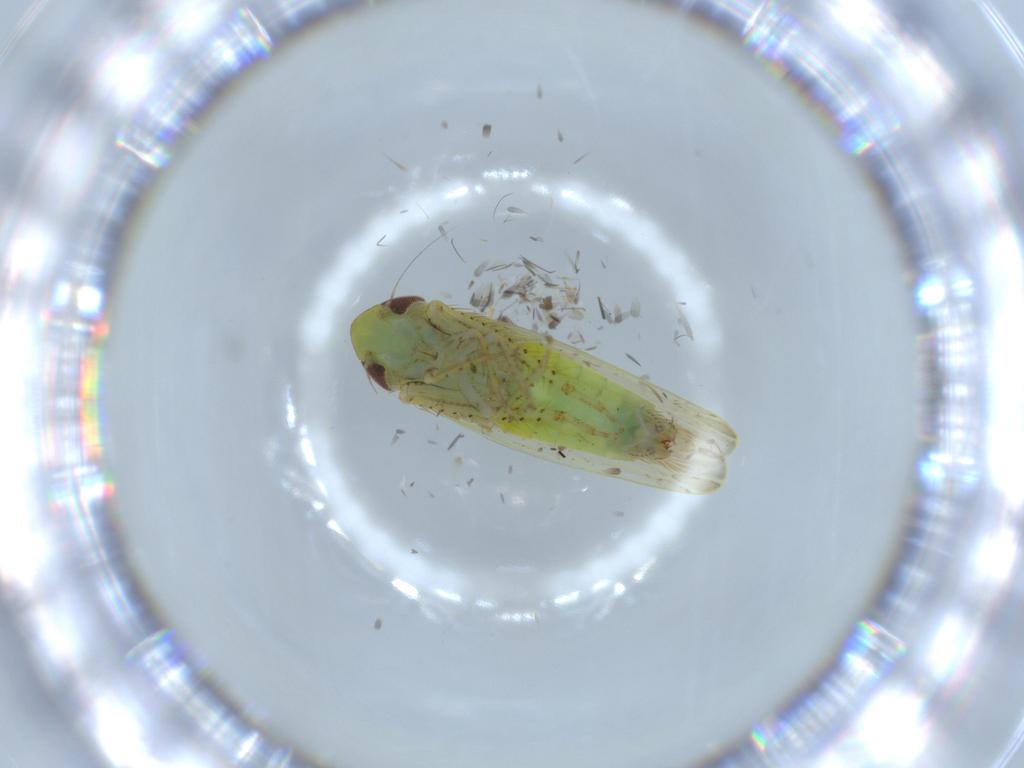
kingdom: Animalia
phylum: Arthropoda
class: Insecta
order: Hemiptera
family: Cicadellidae
